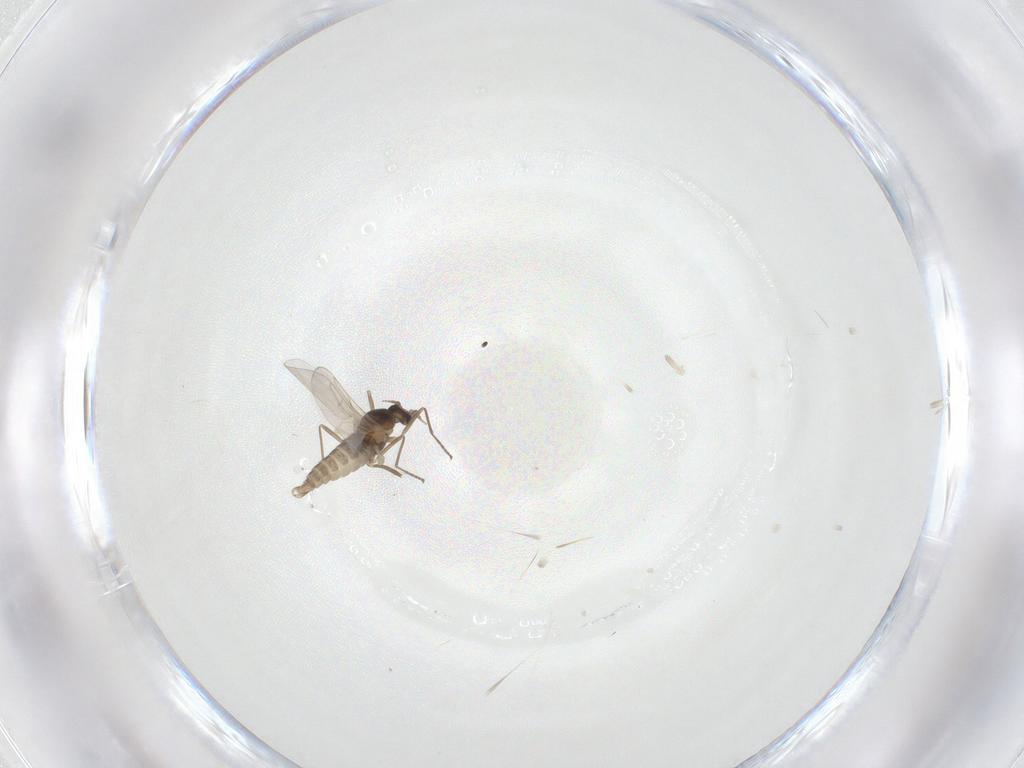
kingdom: Animalia
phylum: Arthropoda
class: Insecta
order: Diptera
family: Cecidomyiidae
